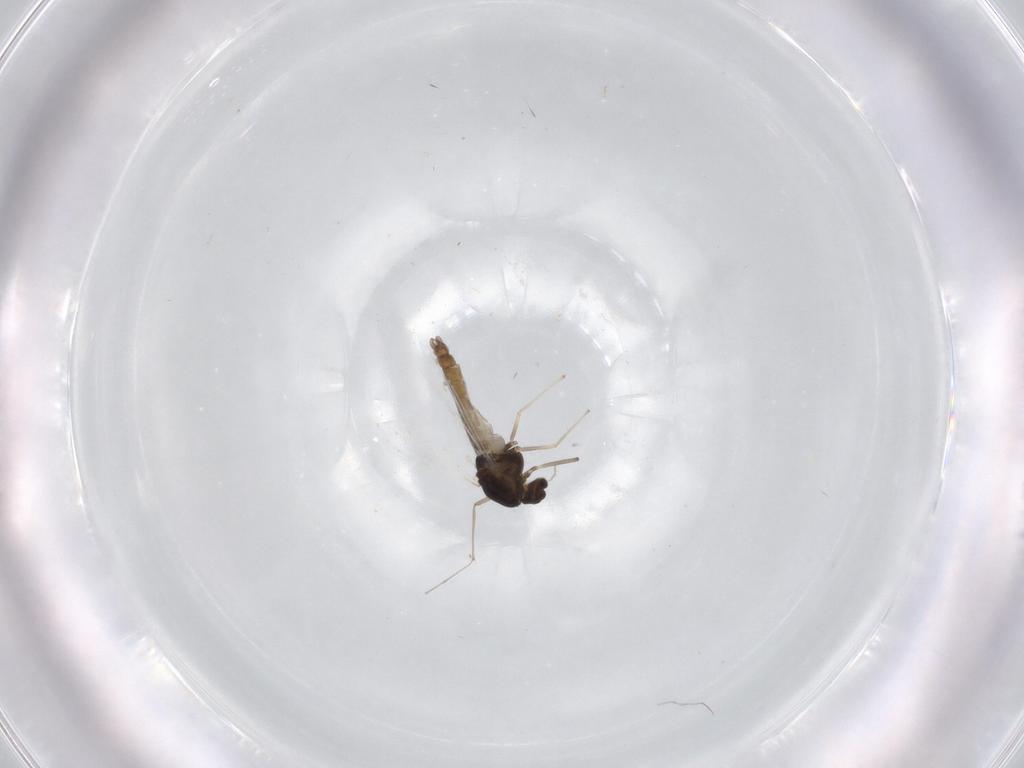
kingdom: Animalia
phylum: Arthropoda
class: Insecta
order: Diptera
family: Chironomidae
